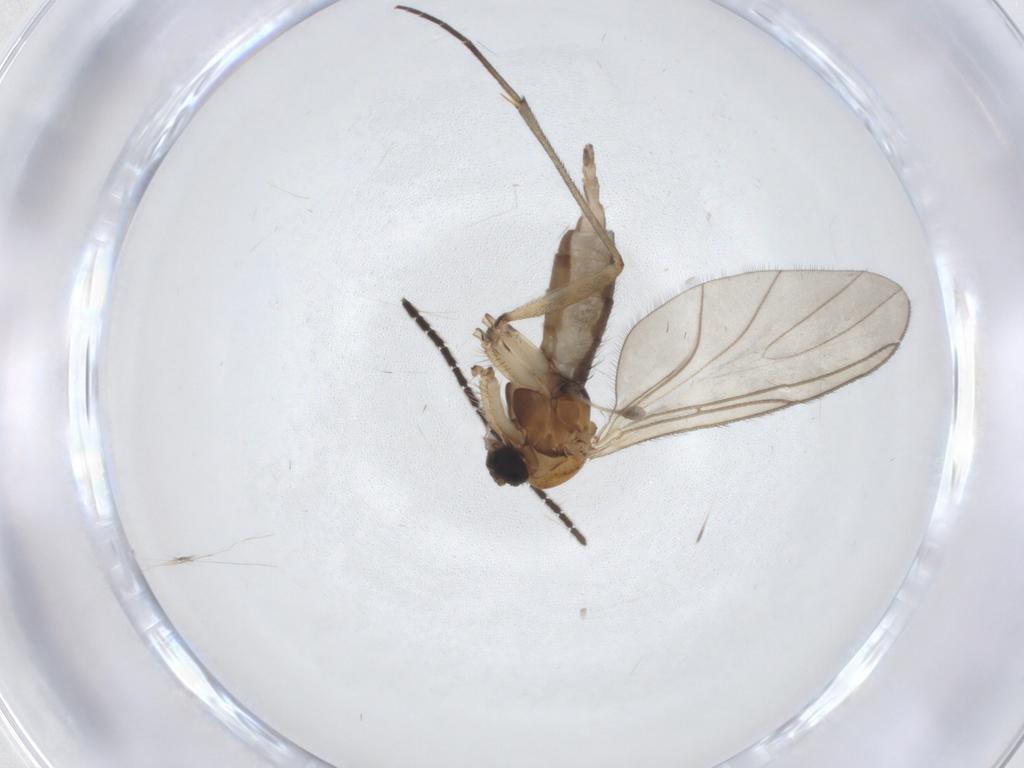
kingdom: Animalia
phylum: Arthropoda
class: Insecta
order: Diptera
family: Sciaridae
